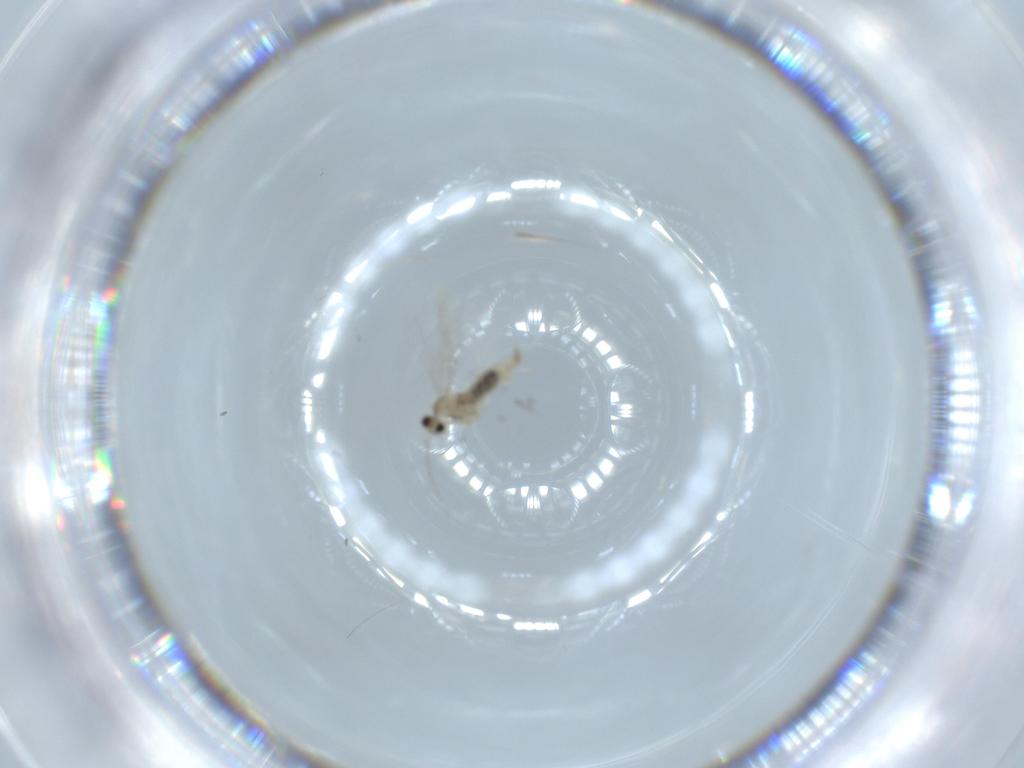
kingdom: Animalia
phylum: Arthropoda
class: Insecta
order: Diptera
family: Cecidomyiidae
